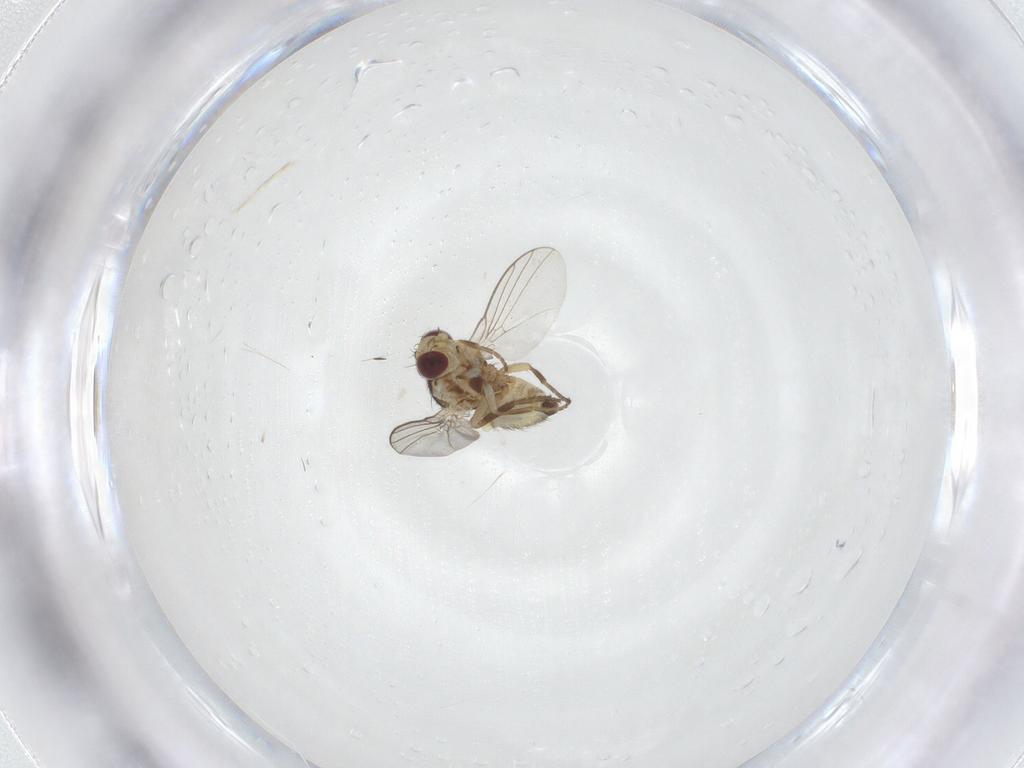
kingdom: Animalia
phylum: Arthropoda
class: Insecta
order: Diptera
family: Agromyzidae
